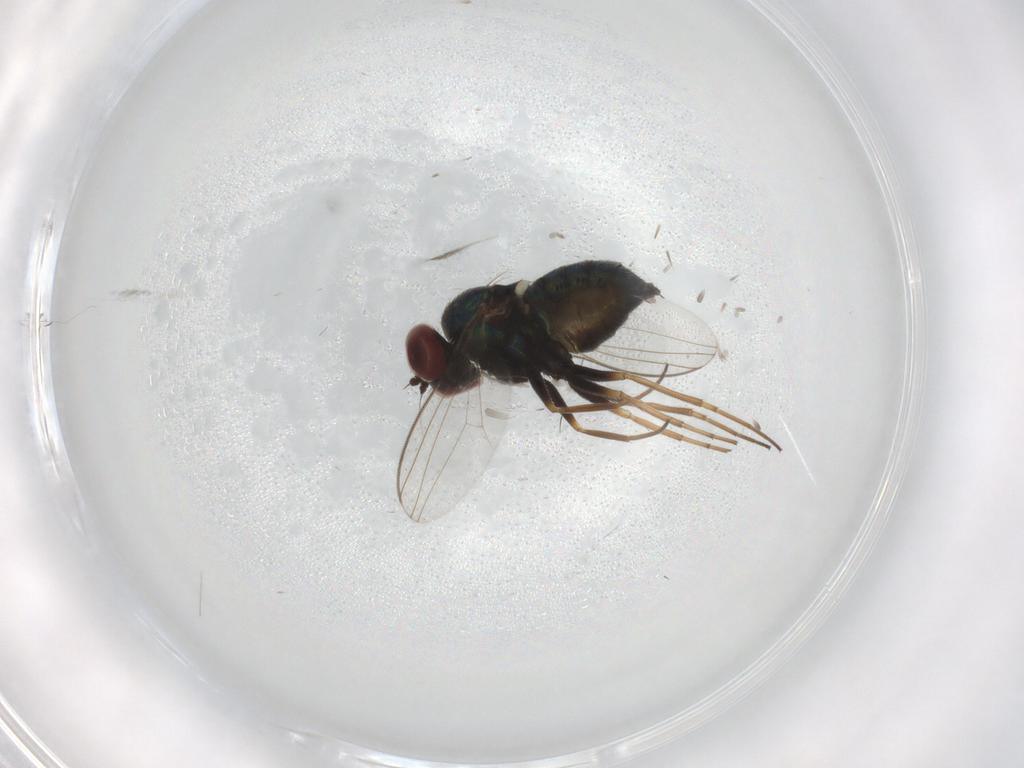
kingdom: Animalia
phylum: Arthropoda
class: Insecta
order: Diptera
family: Dolichopodidae
